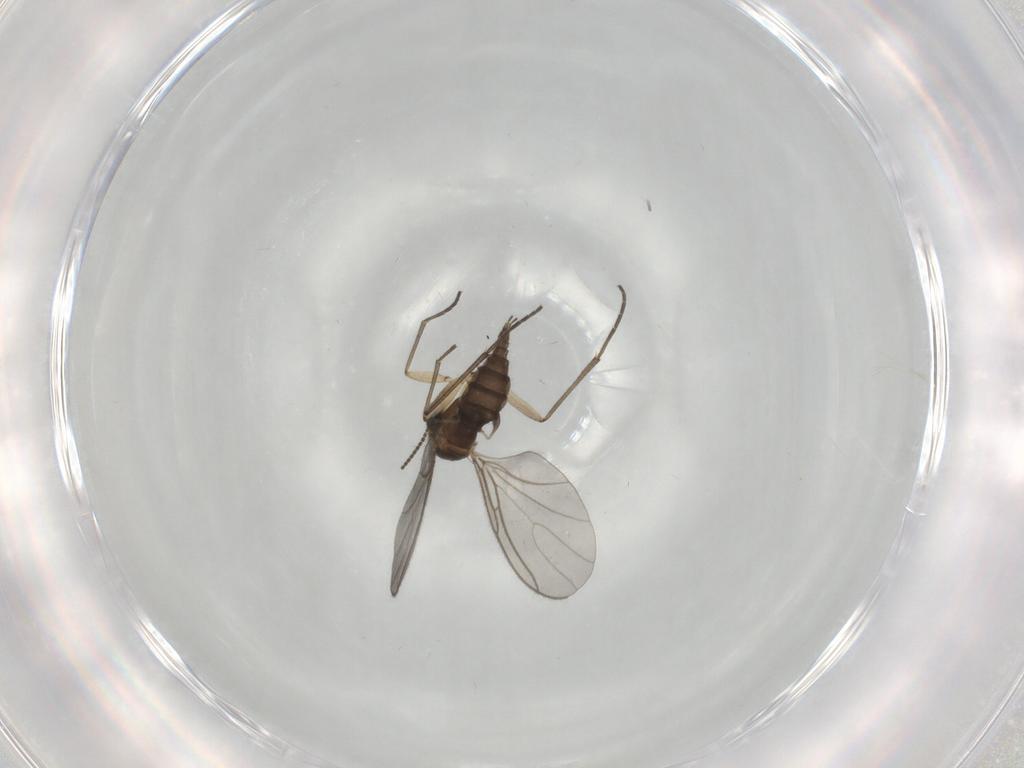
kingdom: Animalia
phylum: Arthropoda
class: Insecta
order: Diptera
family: Sciaridae
